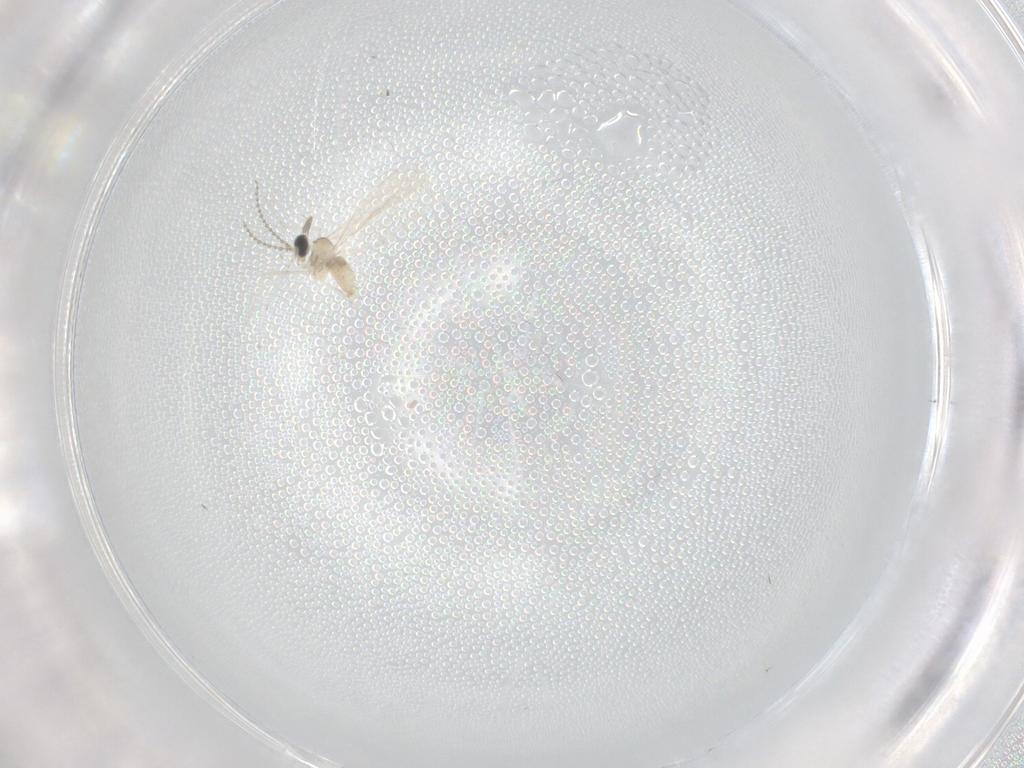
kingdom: Animalia
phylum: Arthropoda
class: Insecta
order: Diptera
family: Cecidomyiidae
